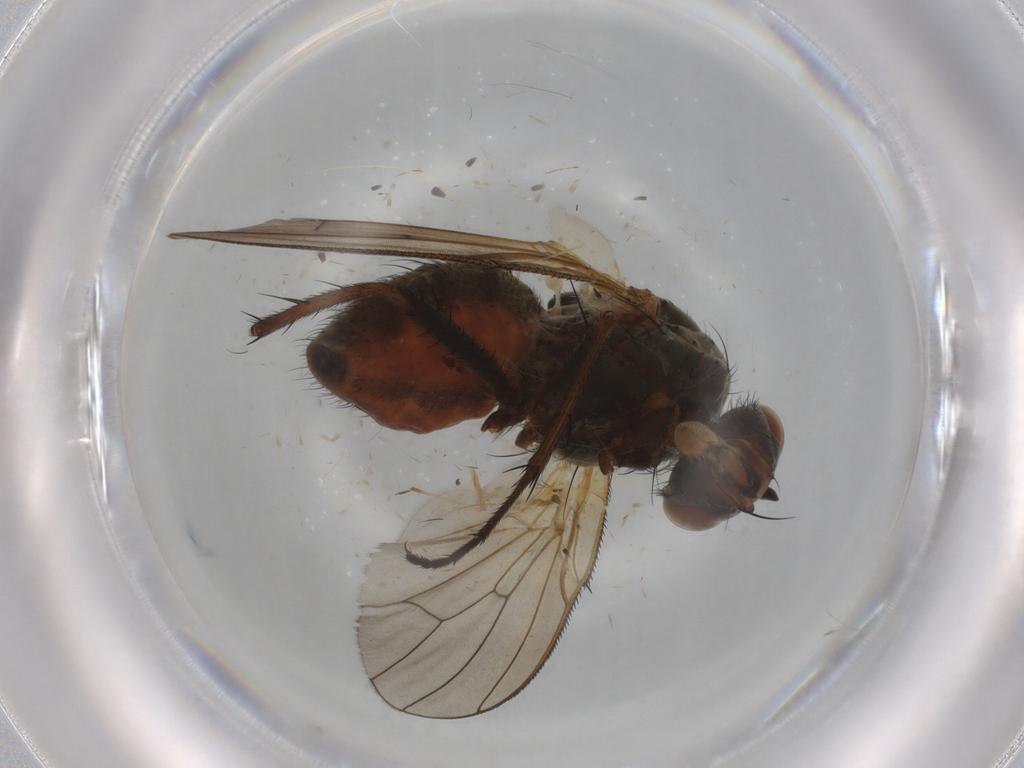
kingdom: Animalia
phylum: Arthropoda
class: Insecta
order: Diptera
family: Anthomyiidae
